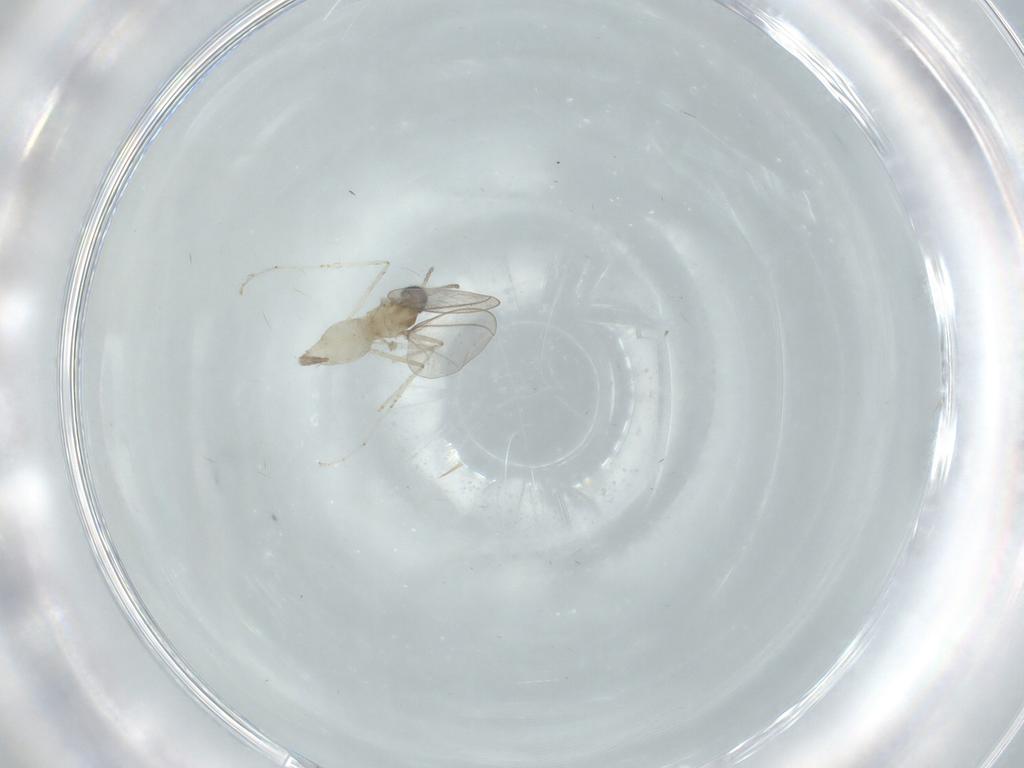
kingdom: Animalia
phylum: Arthropoda
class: Insecta
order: Diptera
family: Cecidomyiidae
